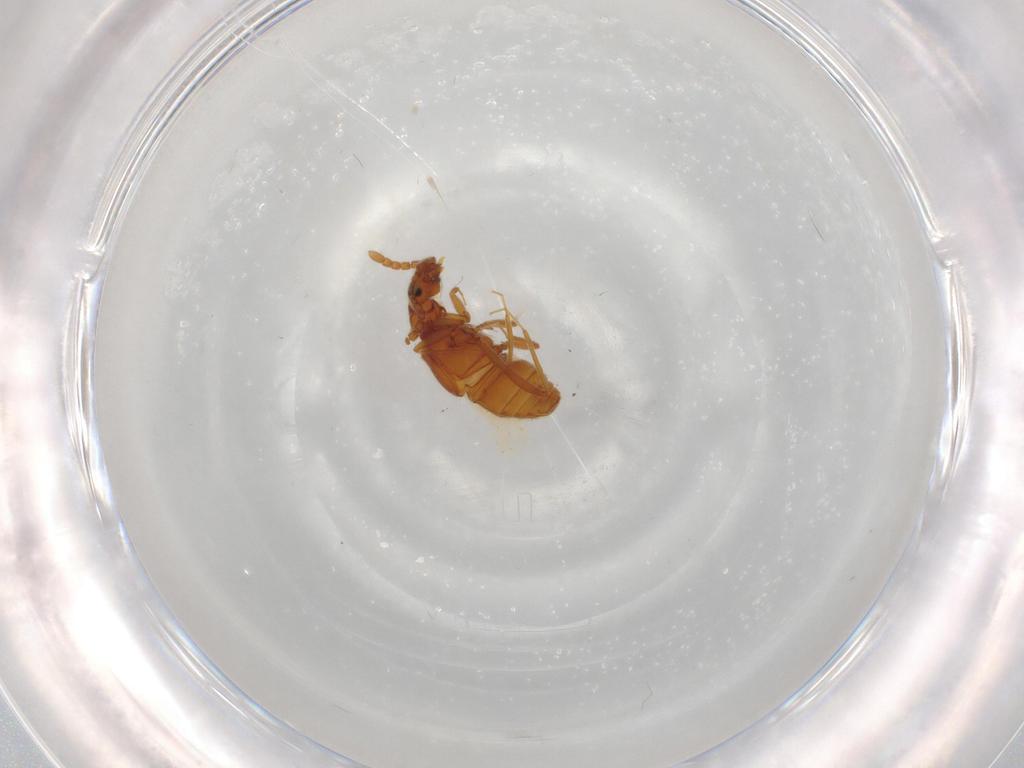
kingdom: Animalia
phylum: Arthropoda
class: Insecta
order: Coleoptera
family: Staphylinidae
